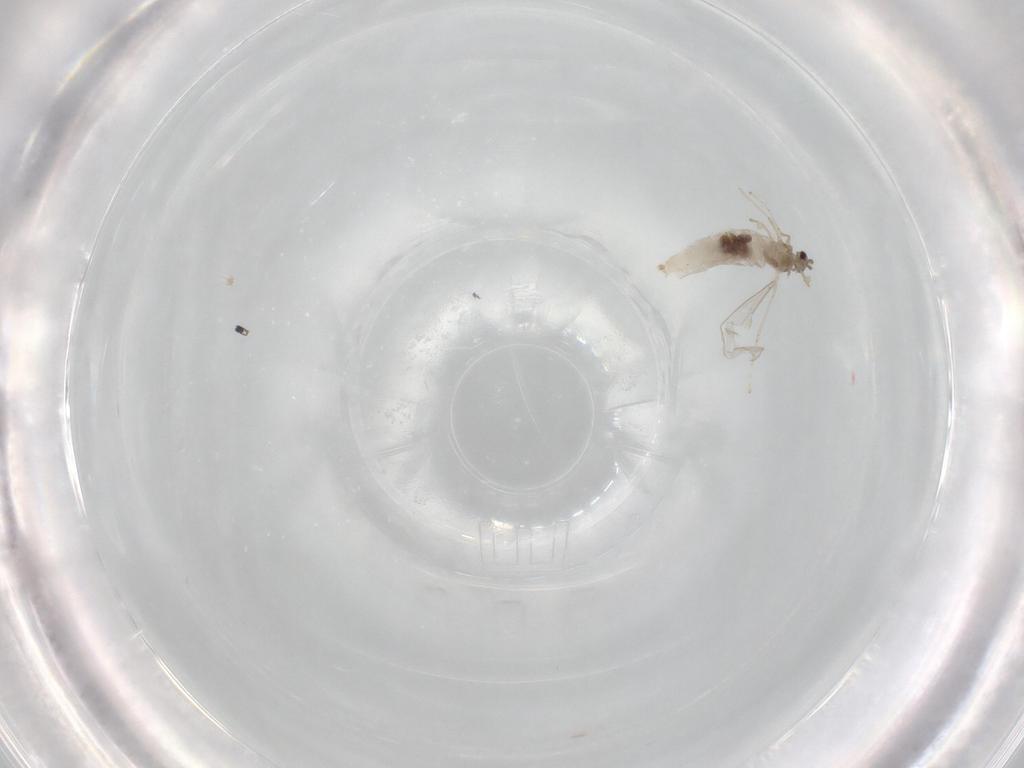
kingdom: Animalia
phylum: Arthropoda
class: Insecta
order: Diptera
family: Cecidomyiidae
